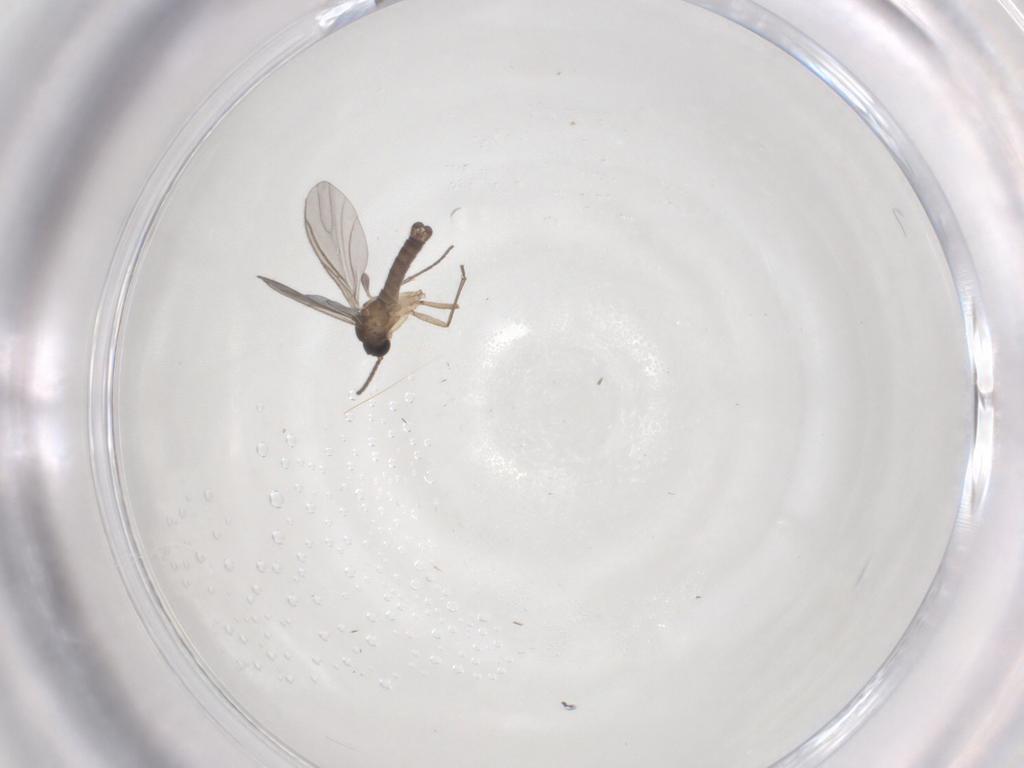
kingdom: Animalia
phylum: Arthropoda
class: Insecta
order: Diptera
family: Sciaridae
